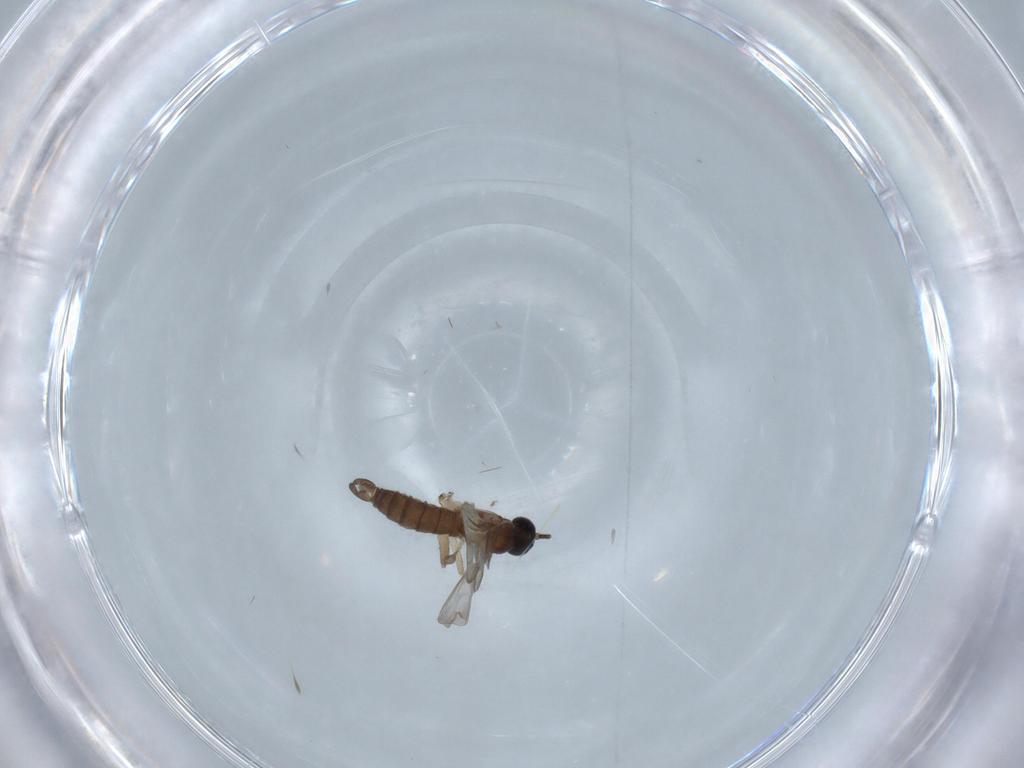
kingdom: Animalia
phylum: Arthropoda
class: Insecta
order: Diptera
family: Sciaridae
